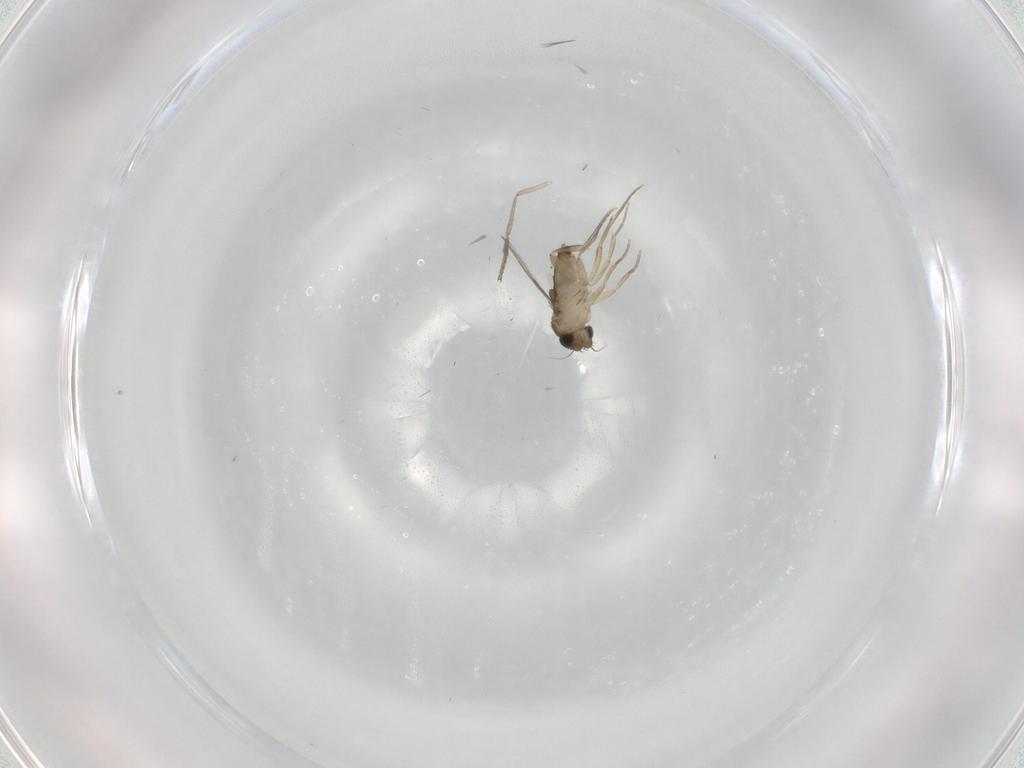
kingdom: Animalia
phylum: Arthropoda
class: Insecta
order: Diptera
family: Phoridae
